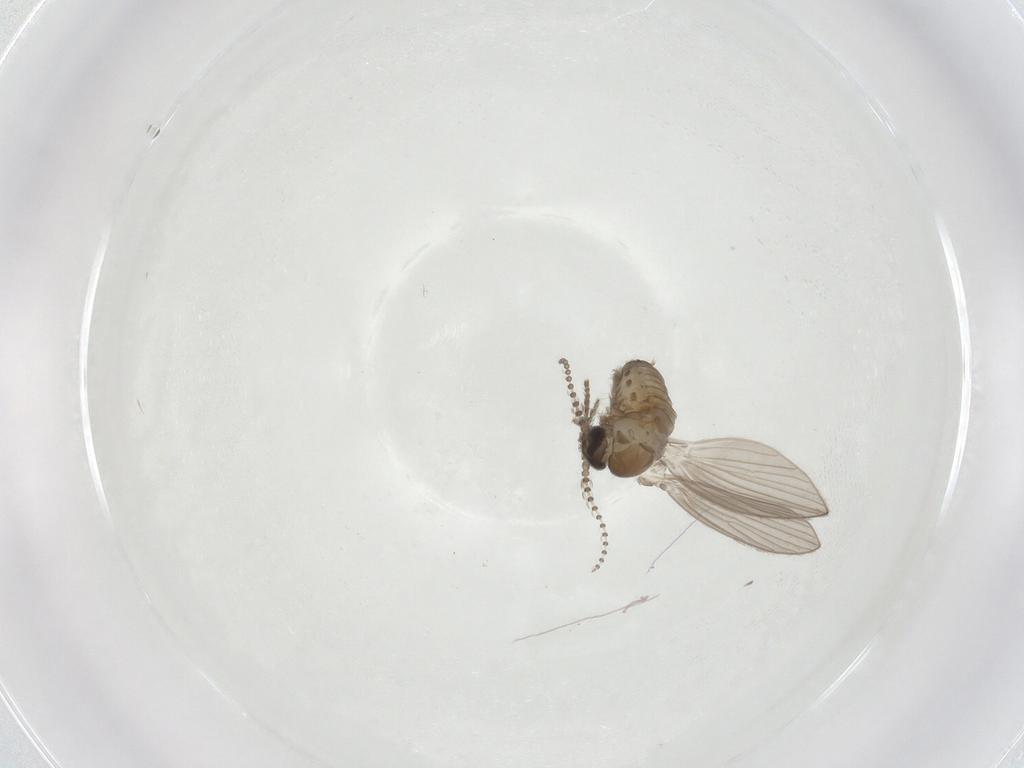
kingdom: Animalia
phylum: Arthropoda
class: Insecta
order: Diptera
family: Psychodidae
